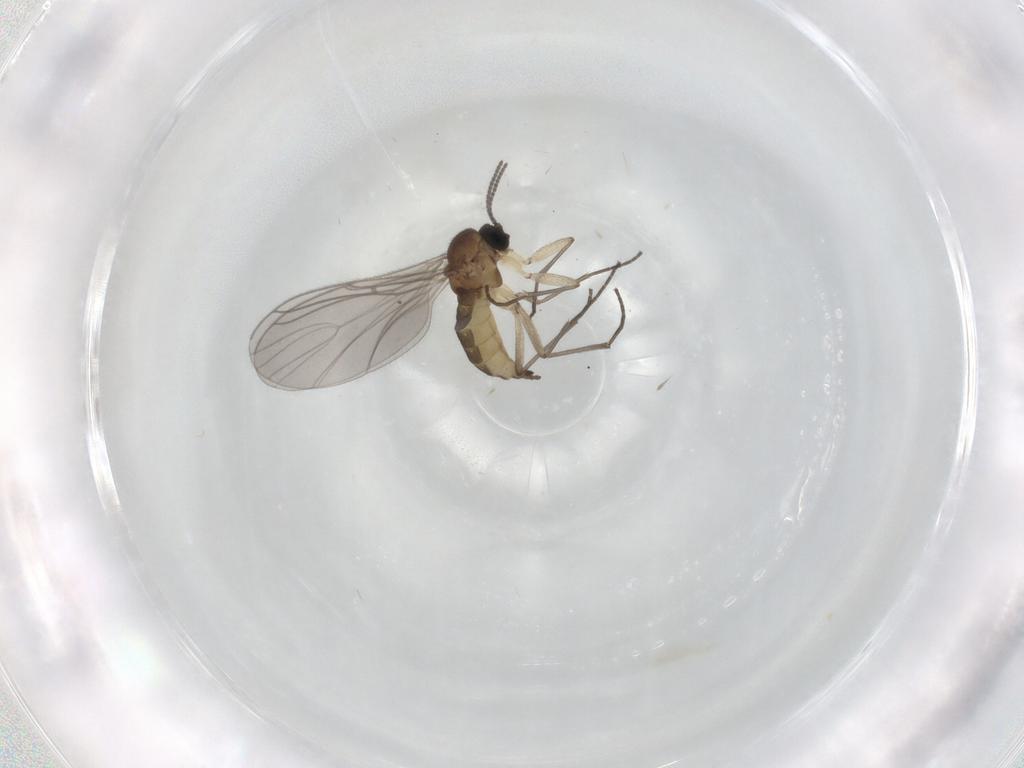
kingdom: Animalia
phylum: Arthropoda
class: Insecta
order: Diptera
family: Sciaridae
